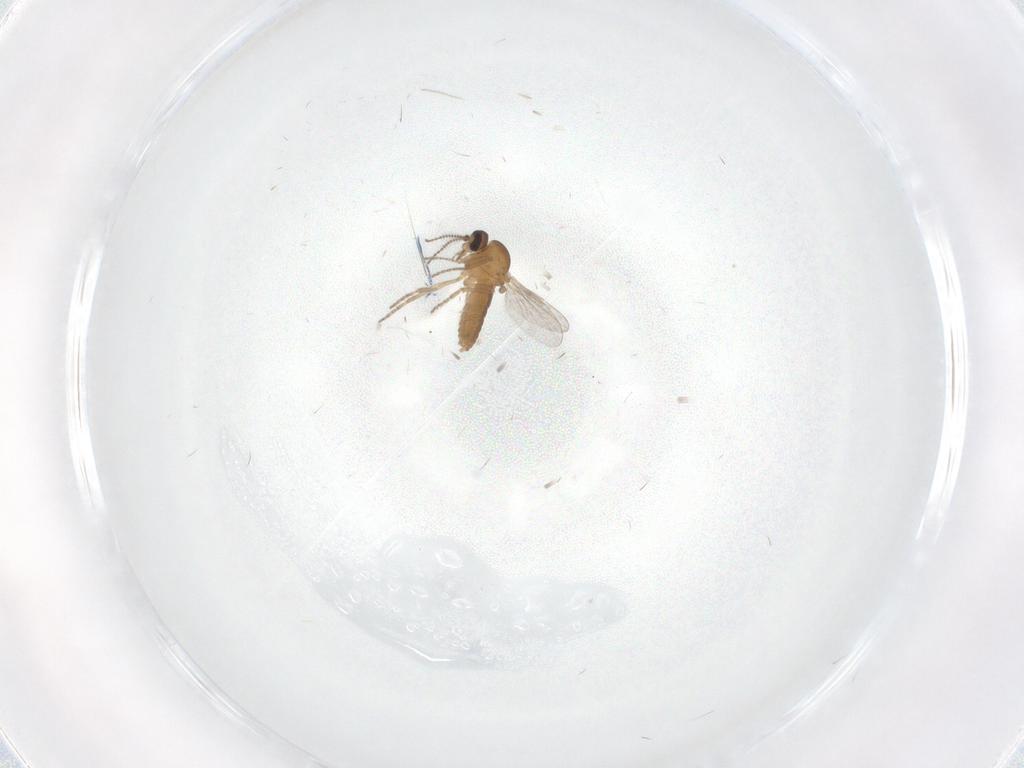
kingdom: Animalia
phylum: Arthropoda
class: Insecta
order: Diptera
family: Ceratopogonidae
